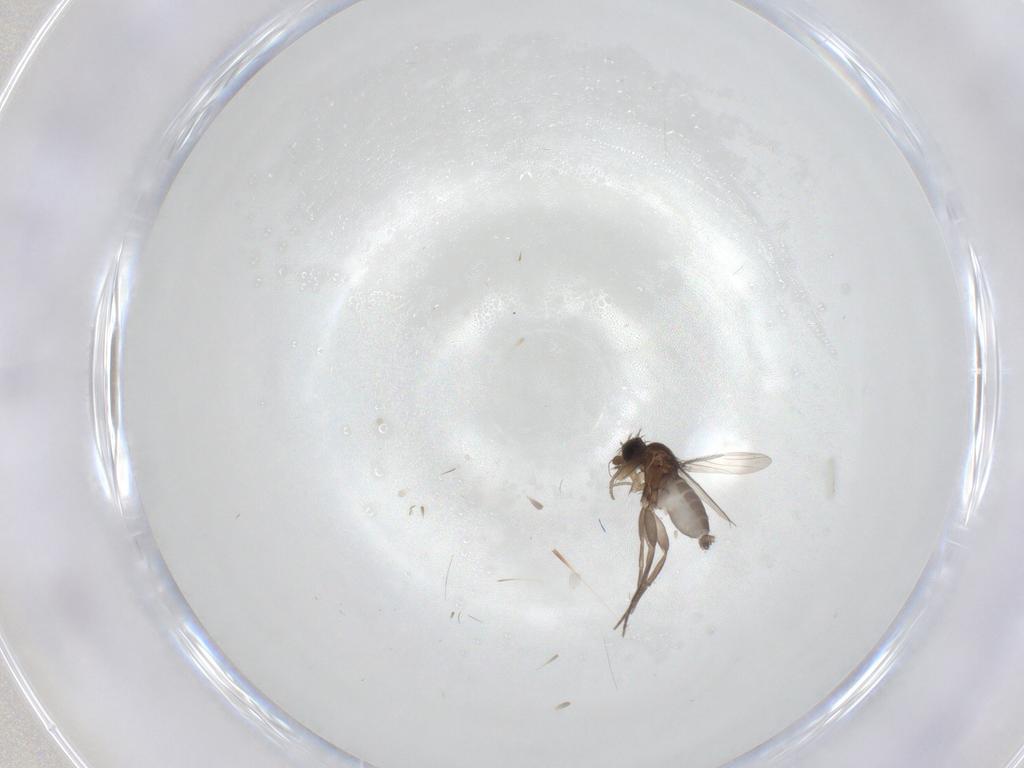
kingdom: Animalia
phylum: Arthropoda
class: Insecta
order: Diptera
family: Phoridae
